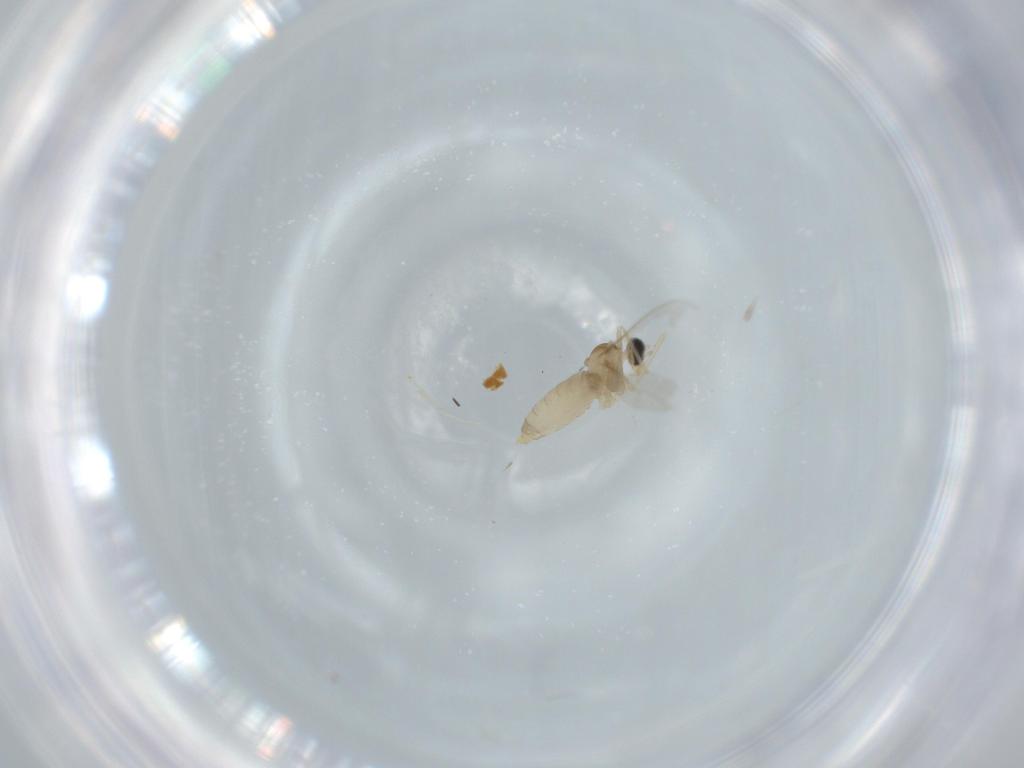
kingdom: Animalia
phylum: Arthropoda
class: Insecta
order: Diptera
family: Cecidomyiidae
